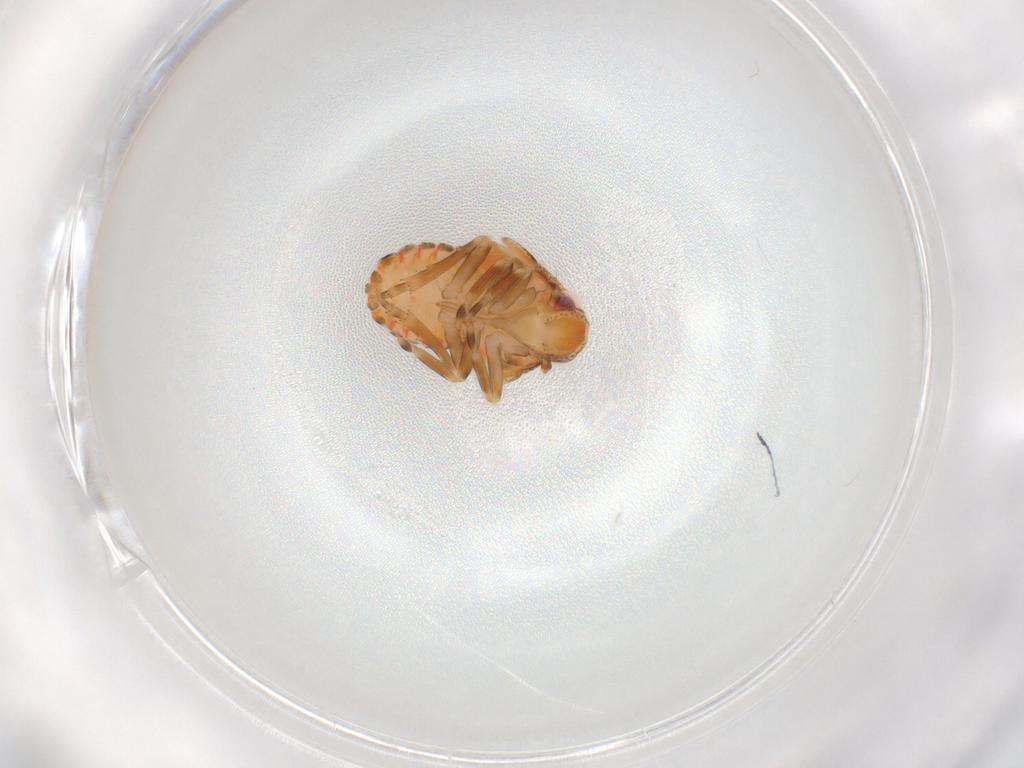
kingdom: Animalia
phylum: Arthropoda
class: Insecta
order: Hemiptera
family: Flatidae
